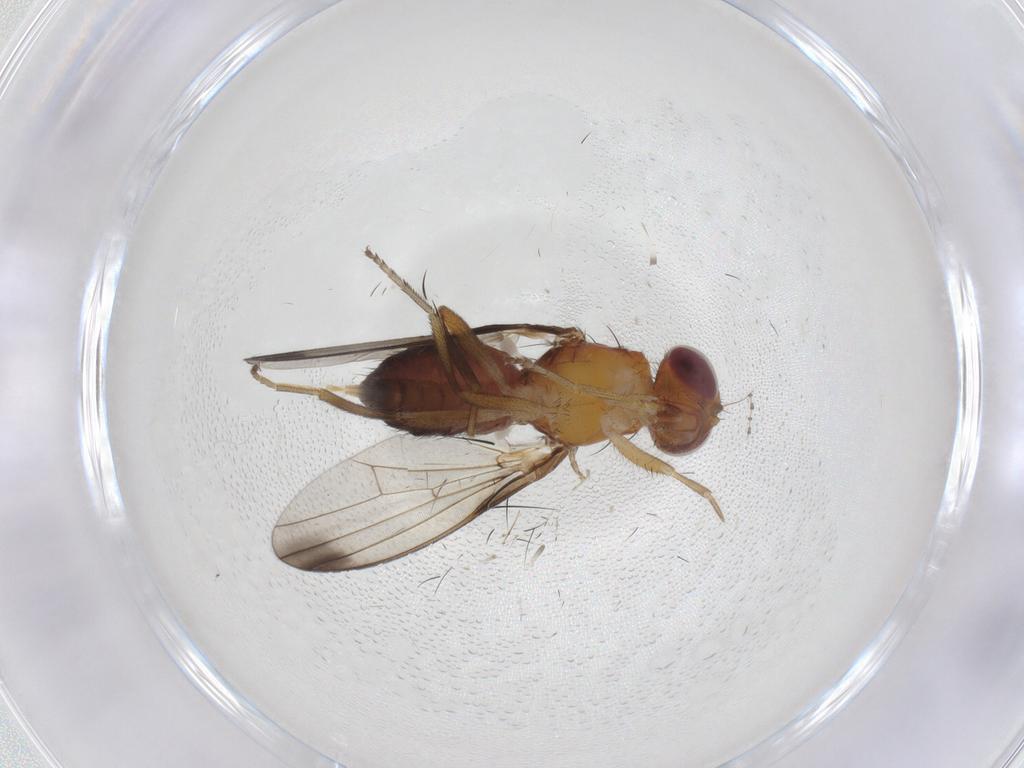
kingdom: Animalia
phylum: Arthropoda
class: Insecta
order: Diptera
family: Piophilidae
